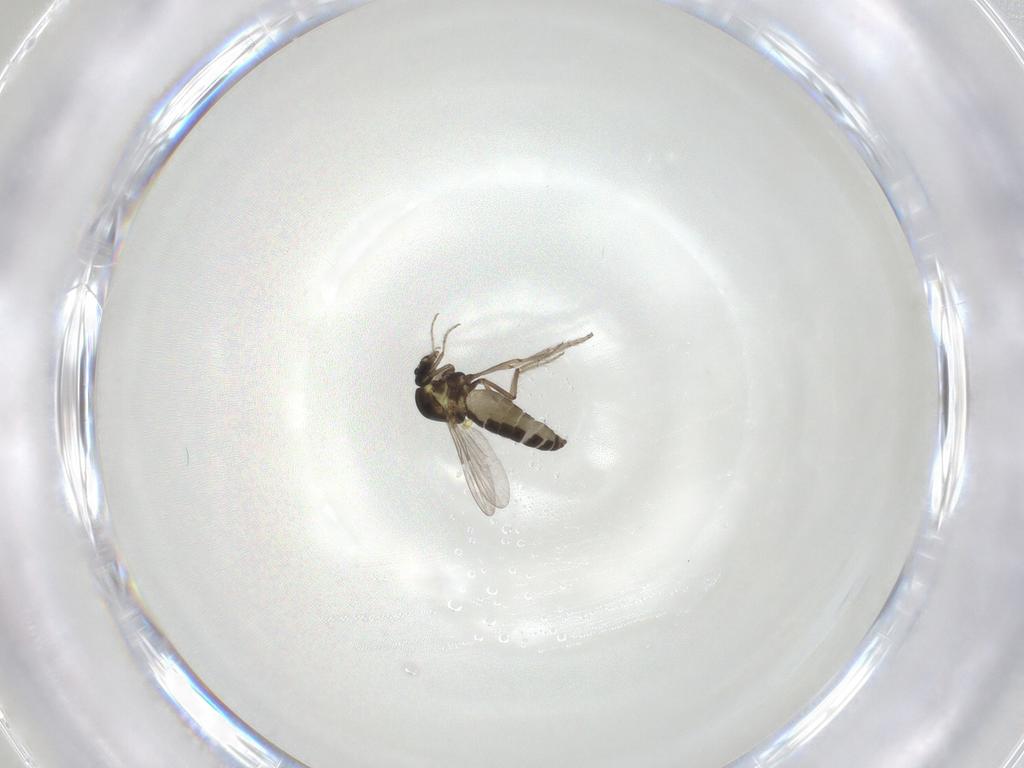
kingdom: Animalia
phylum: Arthropoda
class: Insecta
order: Diptera
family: Ceratopogonidae
